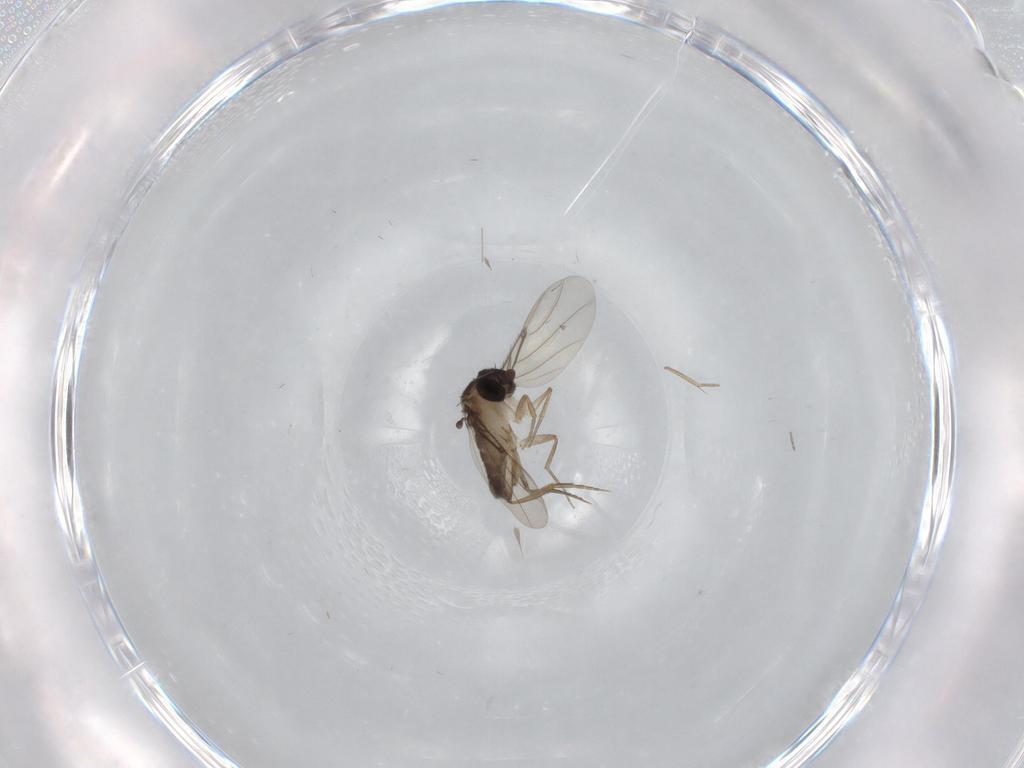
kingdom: Animalia
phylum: Arthropoda
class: Insecta
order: Diptera
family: Phoridae
